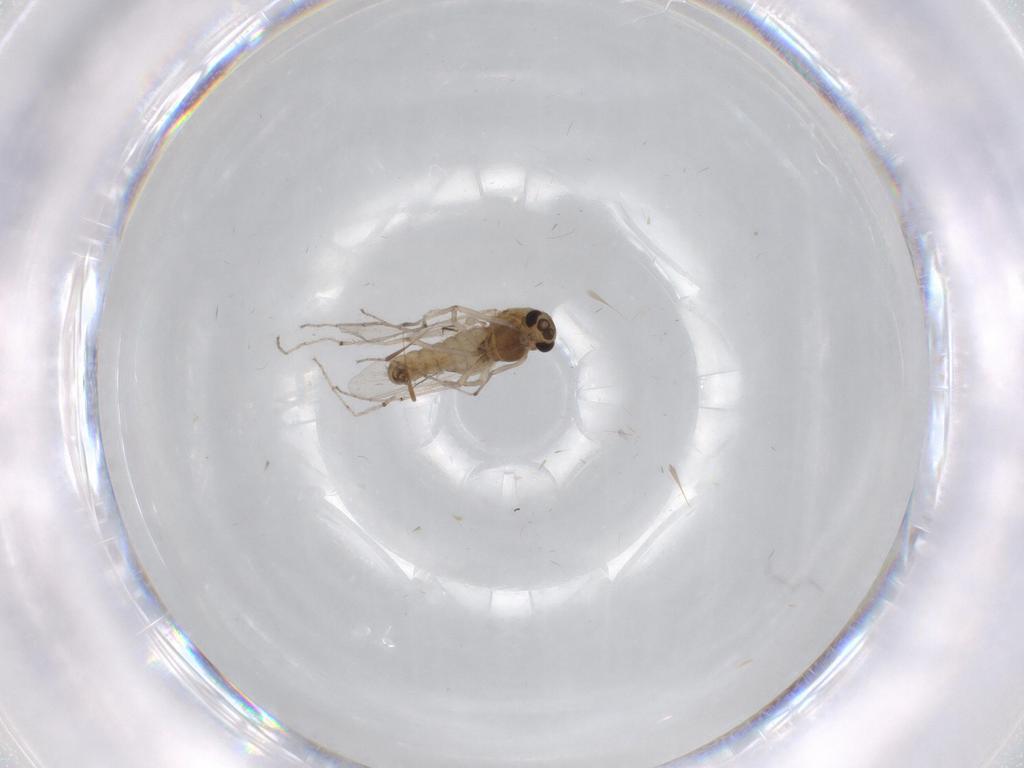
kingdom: Animalia
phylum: Arthropoda
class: Insecta
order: Diptera
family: Chironomidae
